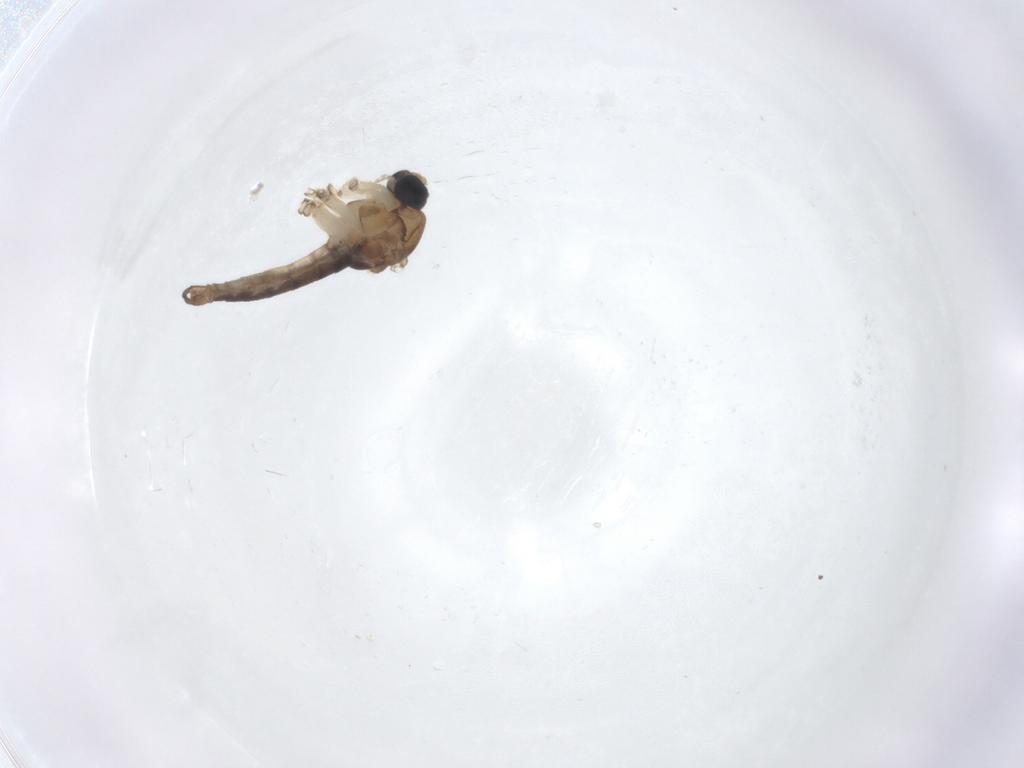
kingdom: Animalia
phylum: Arthropoda
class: Insecta
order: Diptera
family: Sciaridae
